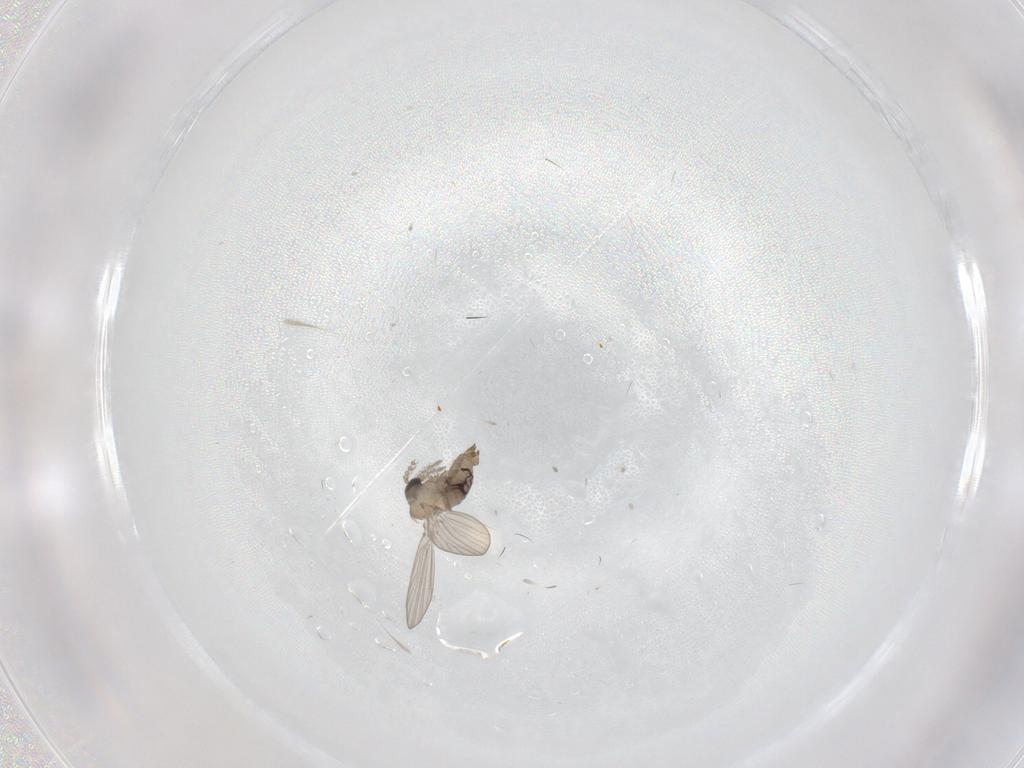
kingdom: Animalia
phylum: Arthropoda
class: Insecta
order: Diptera
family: Psychodidae
